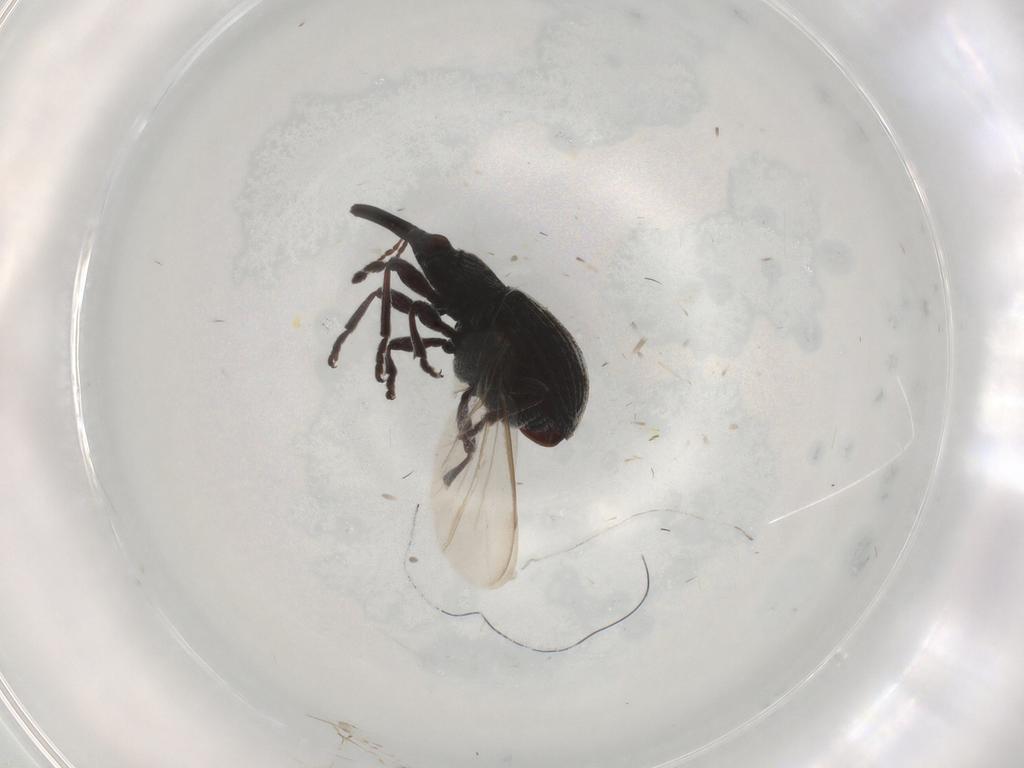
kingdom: Animalia
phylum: Arthropoda
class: Insecta
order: Coleoptera
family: Brentidae
